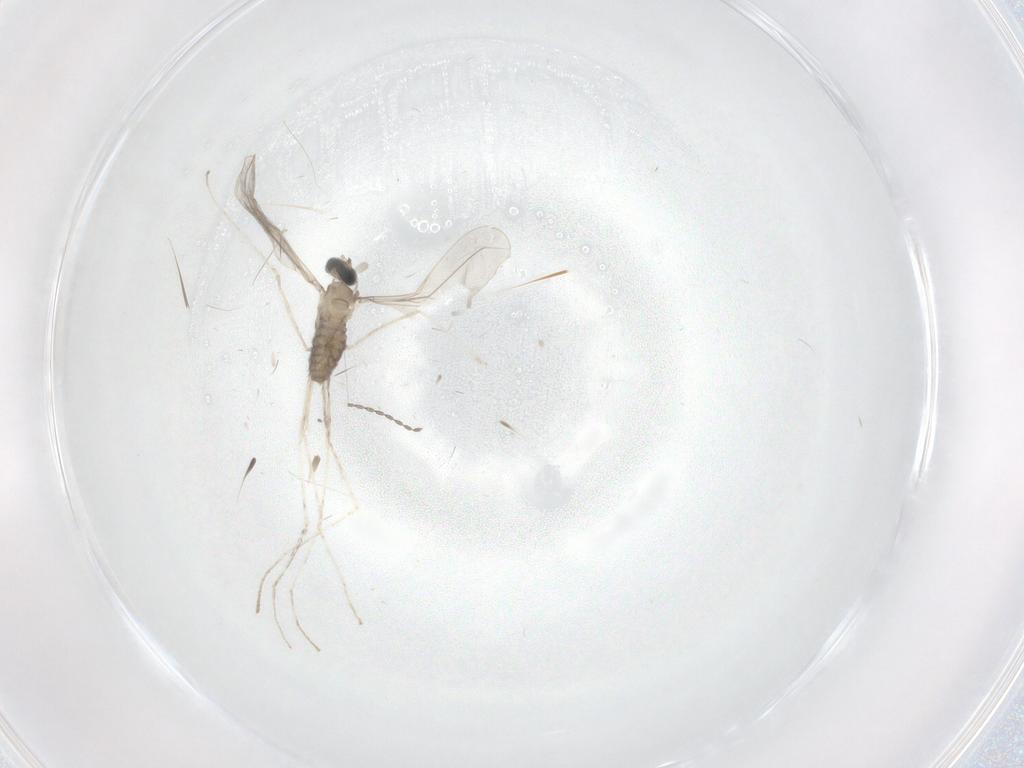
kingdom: Animalia
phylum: Arthropoda
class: Insecta
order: Diptera
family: Cecidomyiidae
